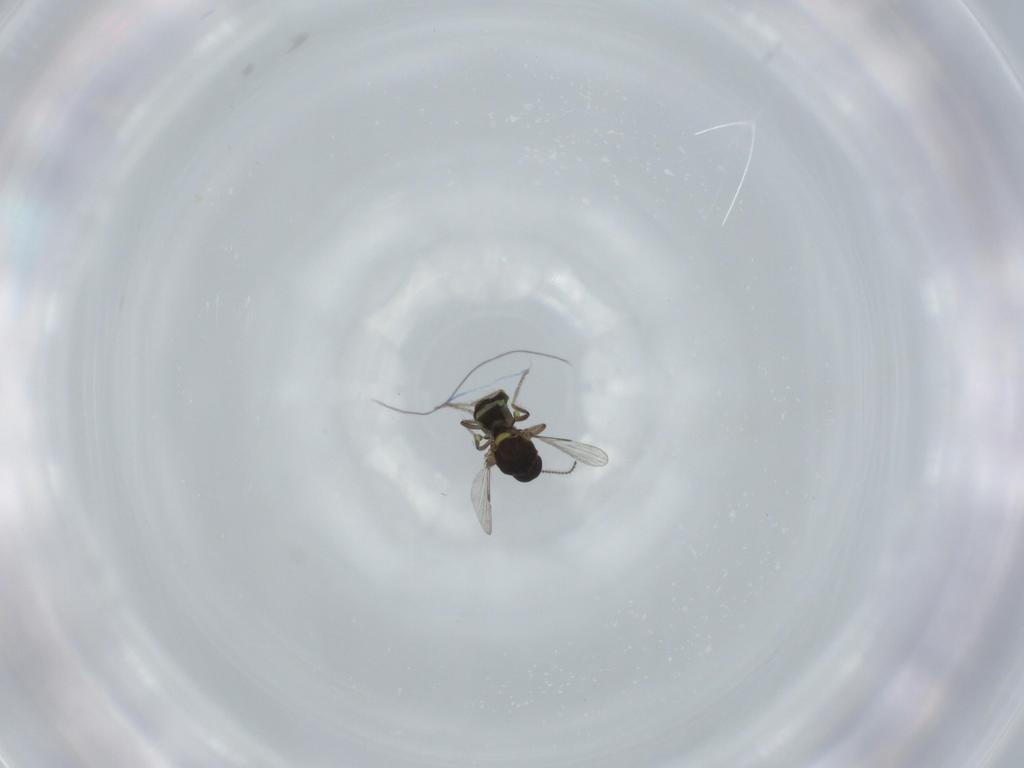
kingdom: Animalia
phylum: Arthropoda
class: Insecta
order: Diptera
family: Ceratopogonidae
